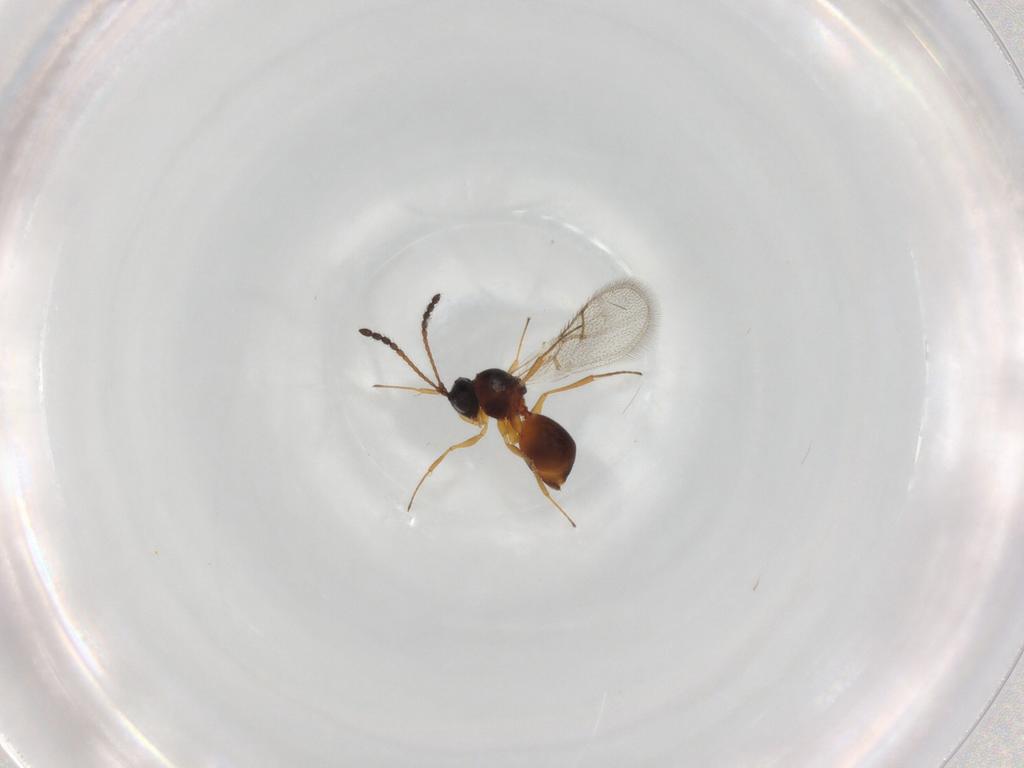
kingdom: Animalia
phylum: Arthropoda
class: Insecta
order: Hymenoptera
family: Figitidae
